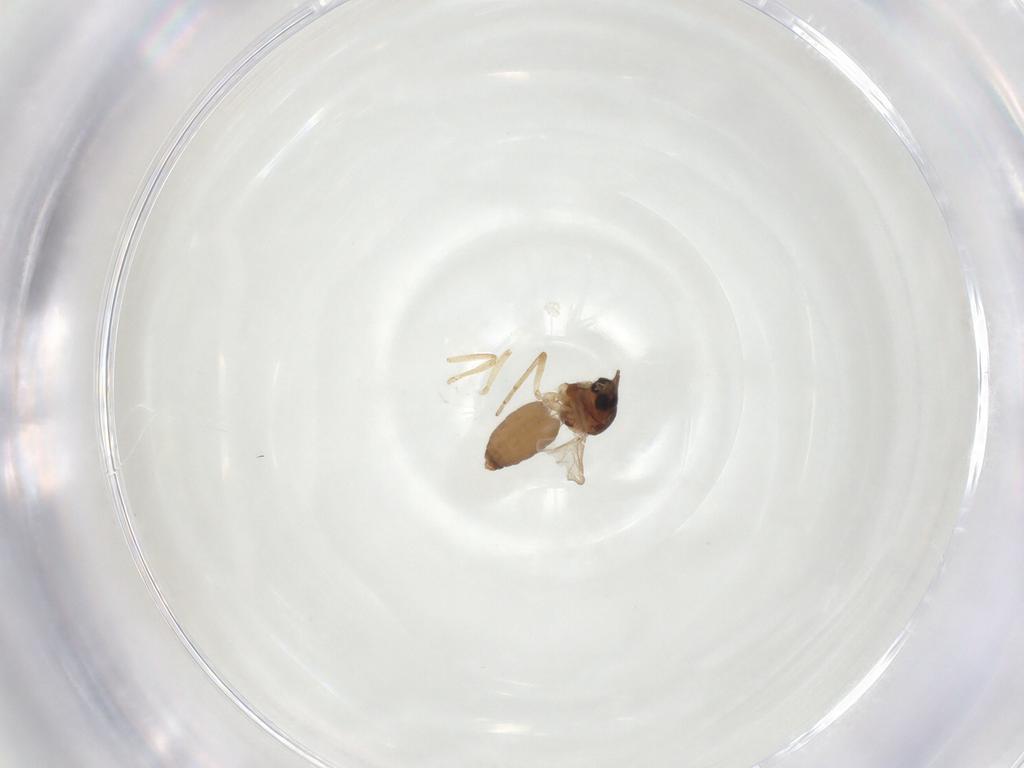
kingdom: Animalia
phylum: Arthropoda
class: Insecta
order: Diptera
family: Ceratopogonidae
